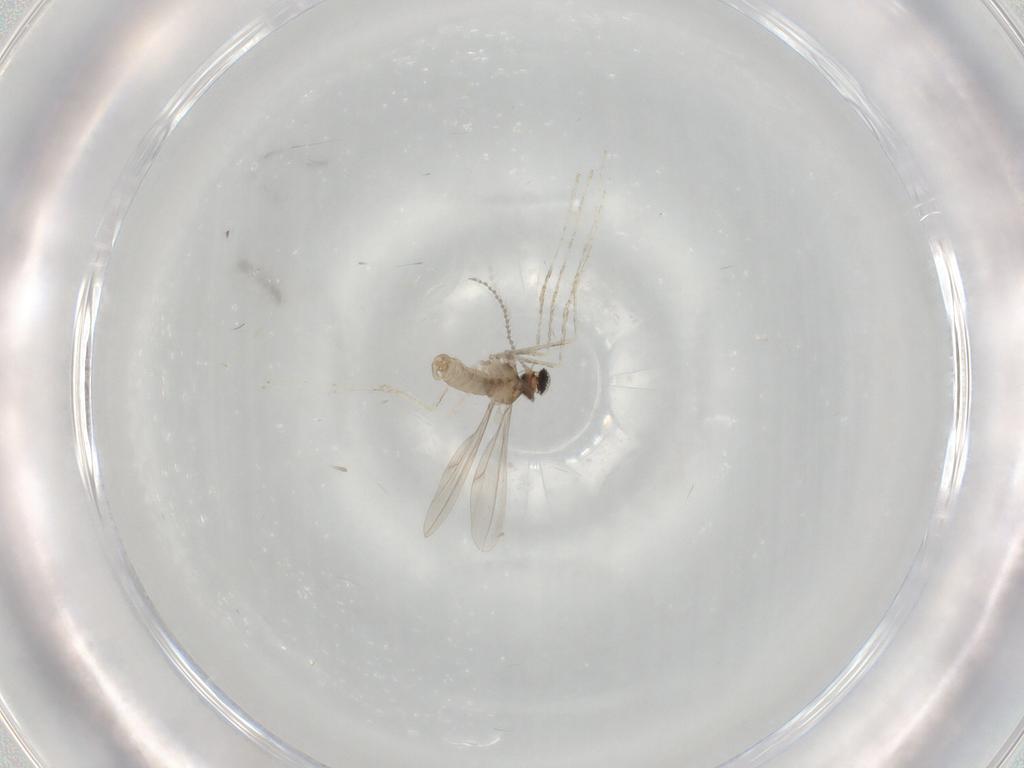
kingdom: Animalia
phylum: Arthropoda
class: Insecta
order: Diptera
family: Cecidomyiidae
